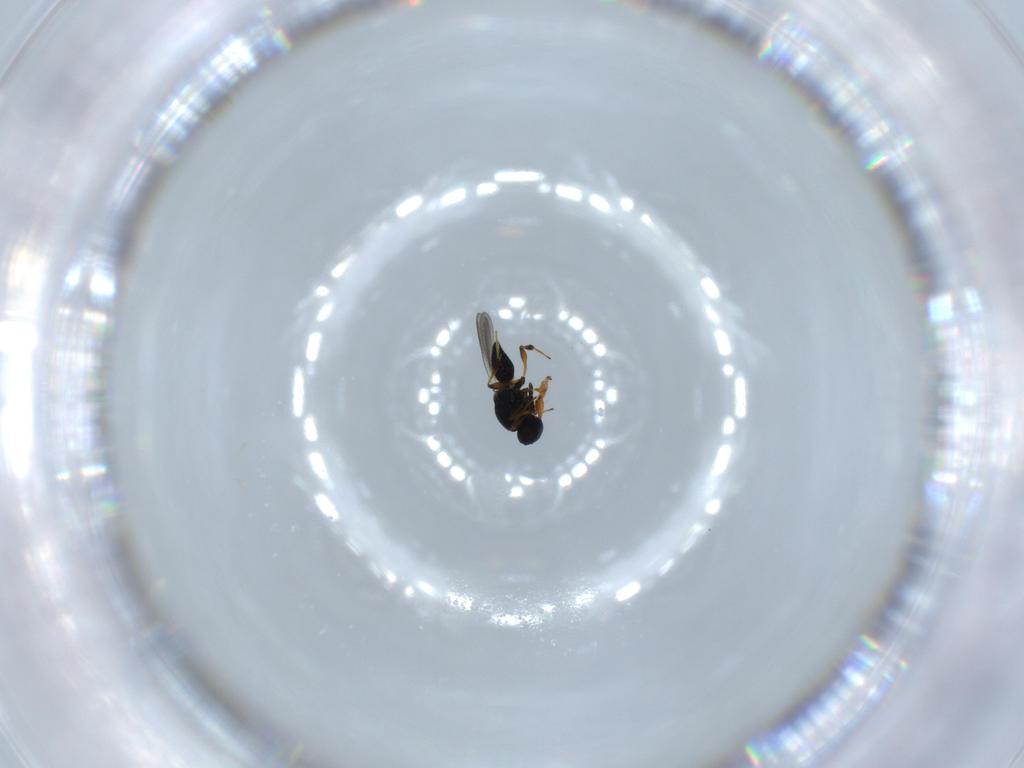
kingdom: Animalia
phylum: Arthropoda
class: Insecta
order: Hymenoptera
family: Platygastridae
